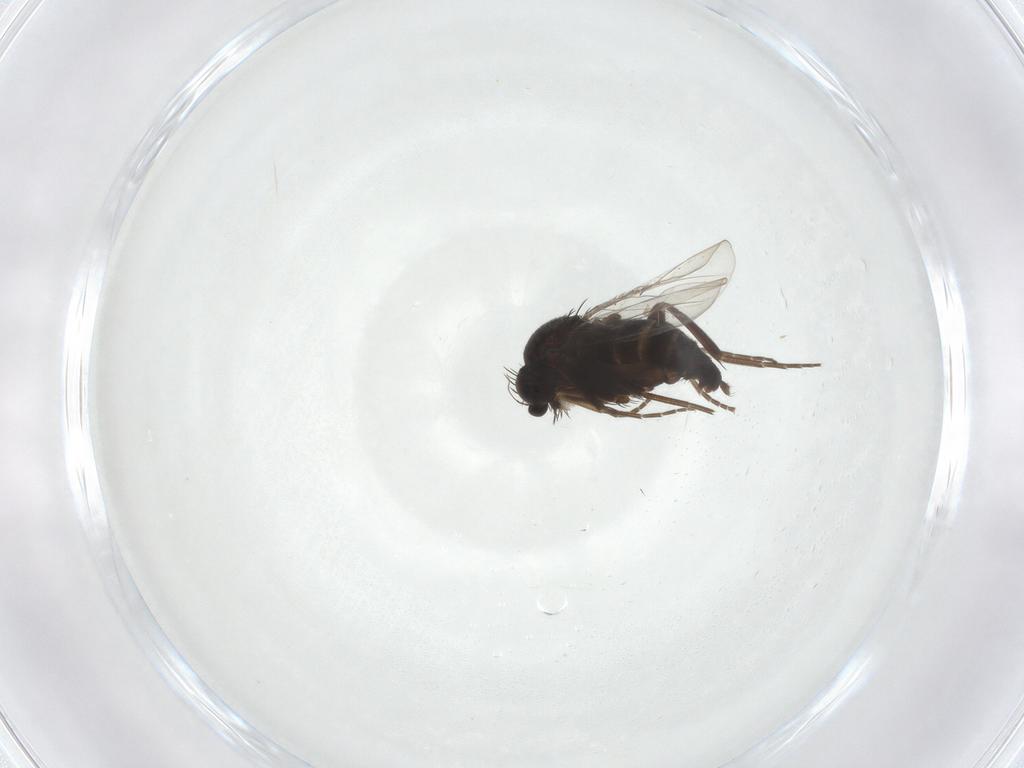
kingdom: Animalia
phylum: Arthropoda
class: Insecta
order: Diptera
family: Phoridae
